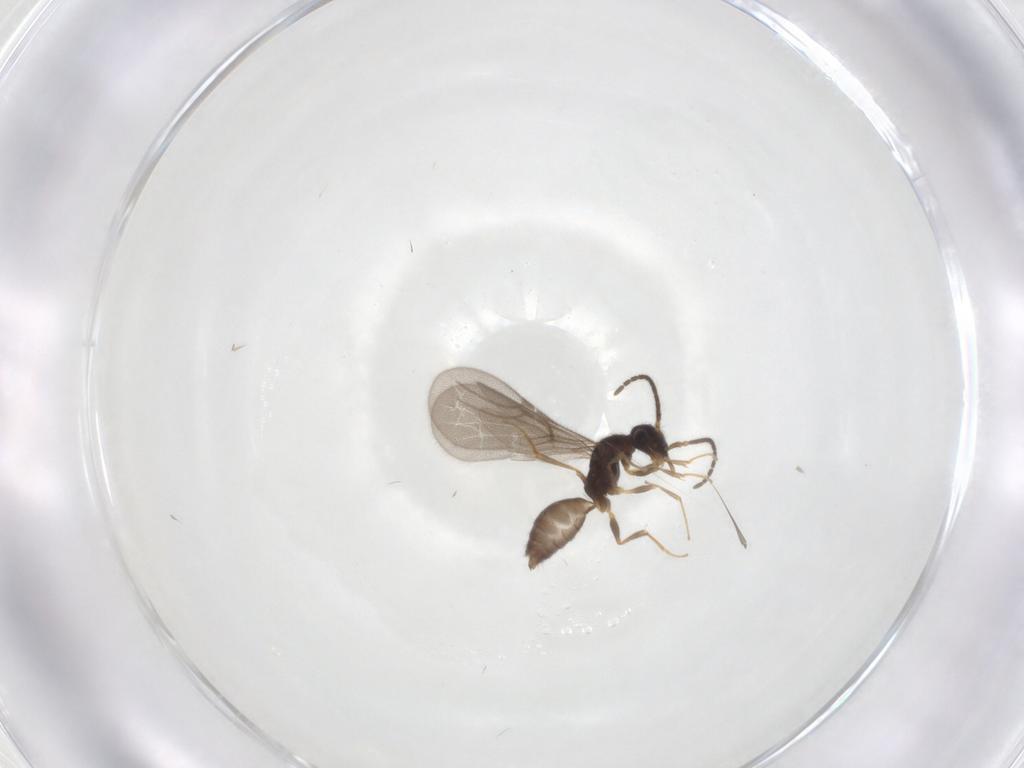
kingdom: Animalia
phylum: Arthropoda
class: Insecta
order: Hymenoptera
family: Bethylidae
